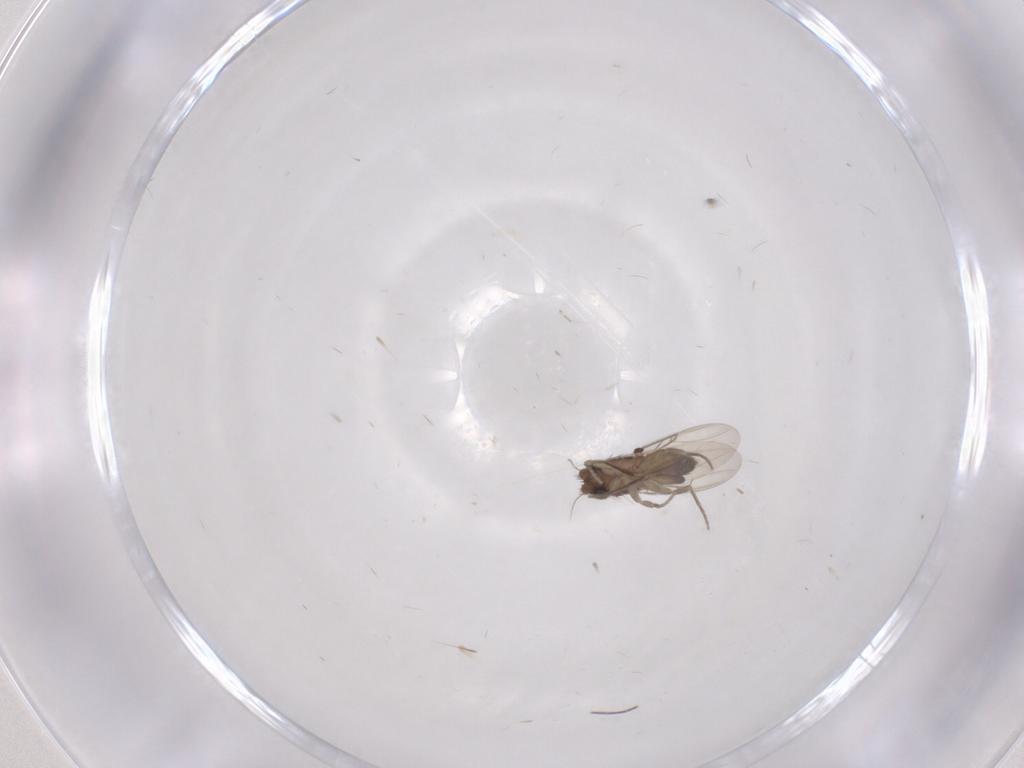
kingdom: Animalia
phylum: Arthropoda
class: Insecta
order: Diptera
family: Phoridae
